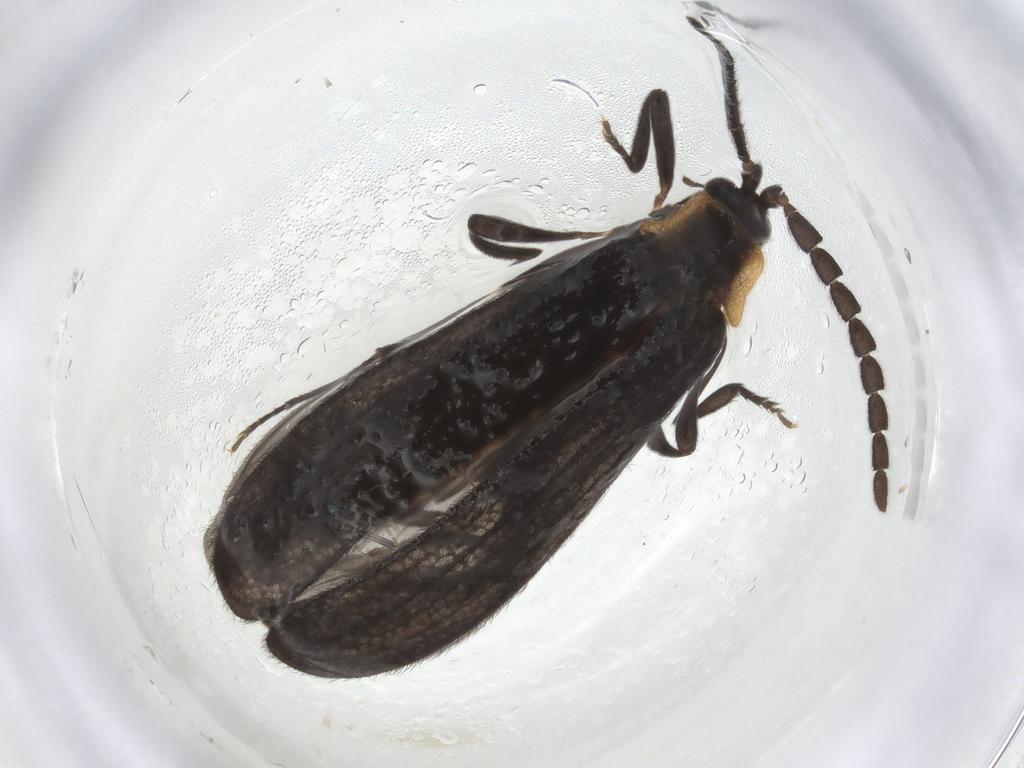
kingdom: Animalia
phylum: Arthropoda
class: Insecta
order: Coleoptera
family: Lycidae
